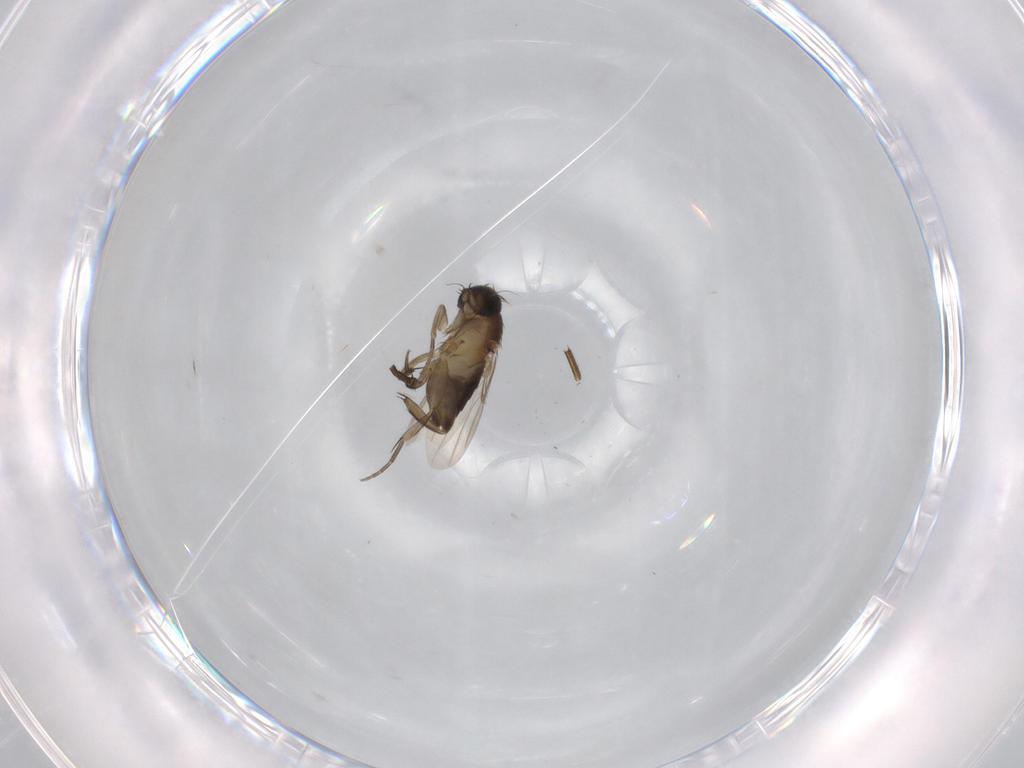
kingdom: Animalia
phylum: Arthropoda
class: Insecta
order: Diptera
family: Phoridae
